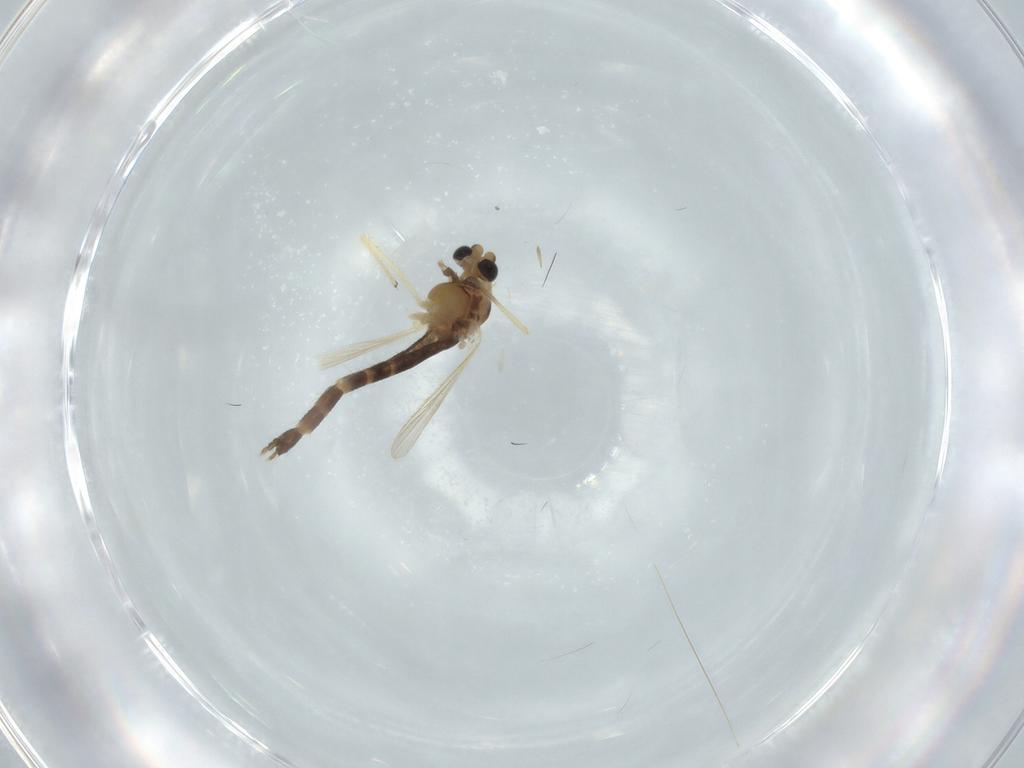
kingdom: Animalia
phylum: Arthropoda
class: Insecta
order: Diptera
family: Chironomidae
